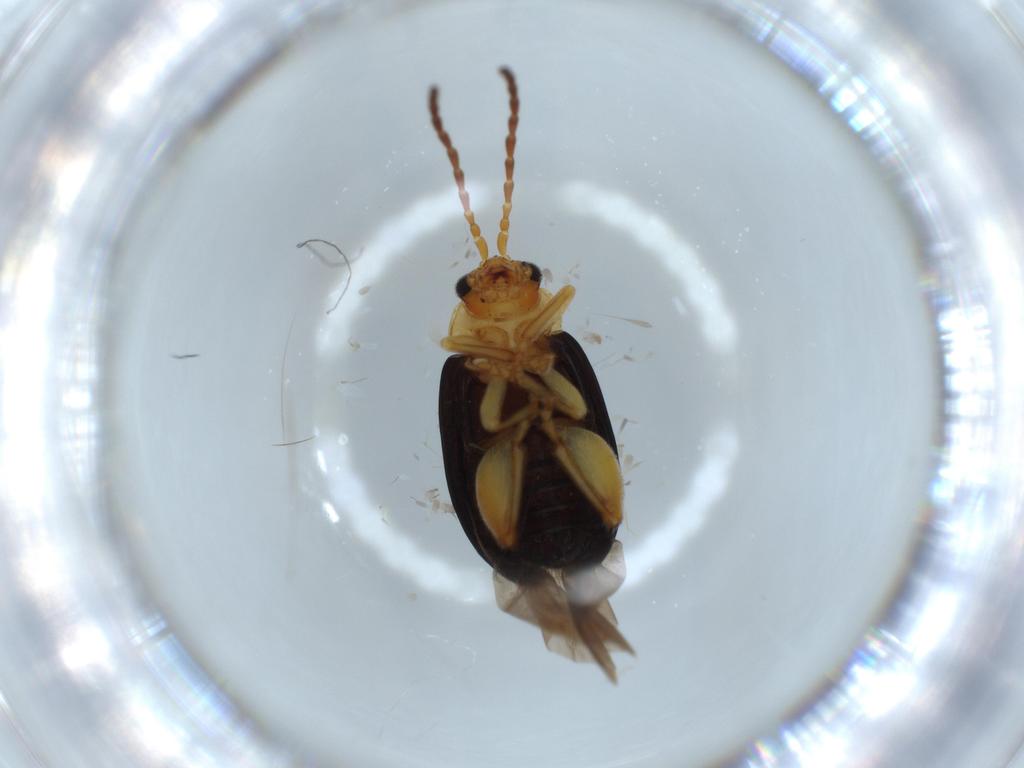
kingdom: Animalia
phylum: Arthropoda
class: Insecta
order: Coleoptera
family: Chrysomelidae
